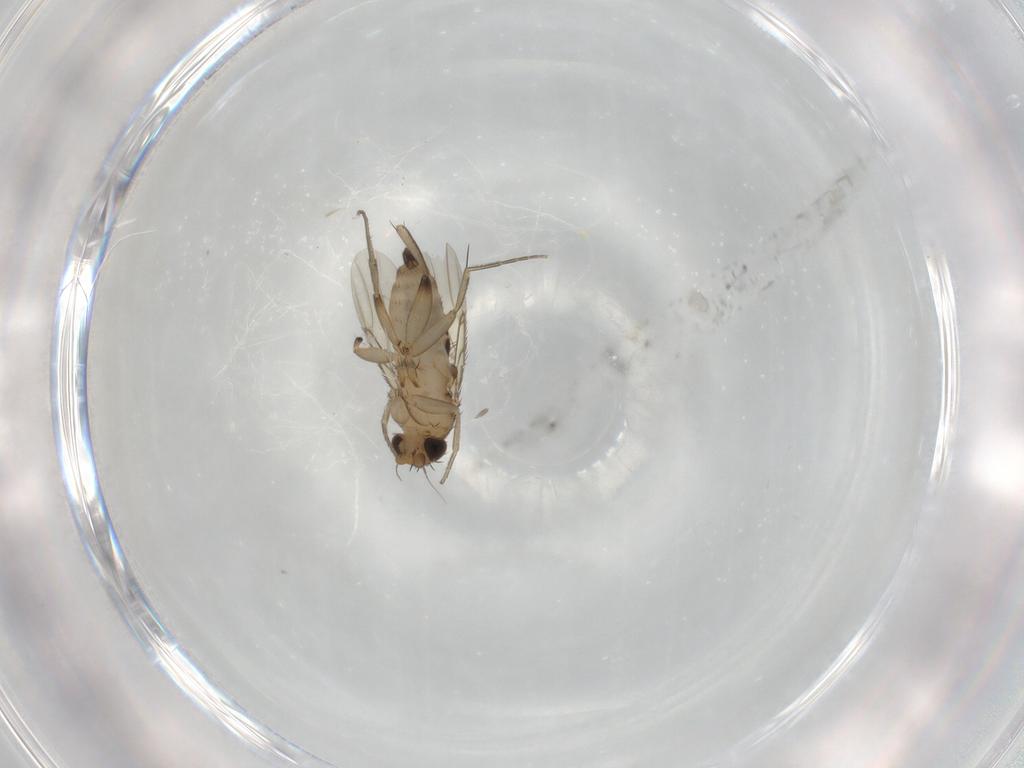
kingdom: Animalia
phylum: Arthropoda
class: Insecta
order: Diptera
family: Phoridae
